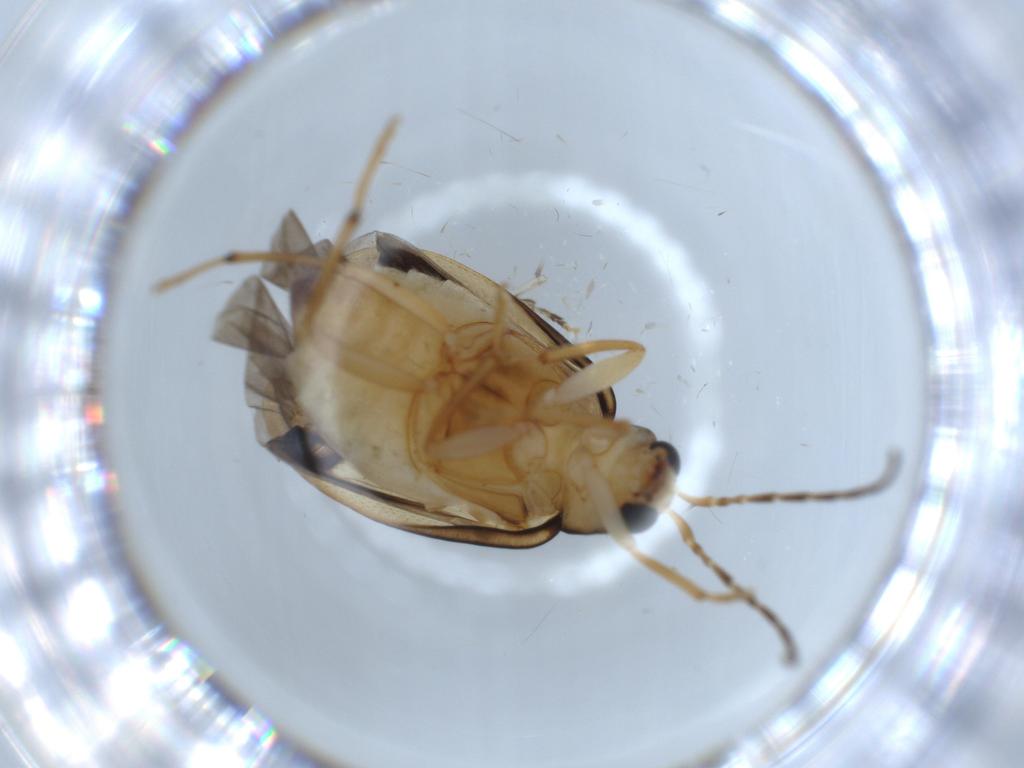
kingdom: Animalia
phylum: Arthropoda
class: Insecta
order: Coleoptera
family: Chrysomelidae
